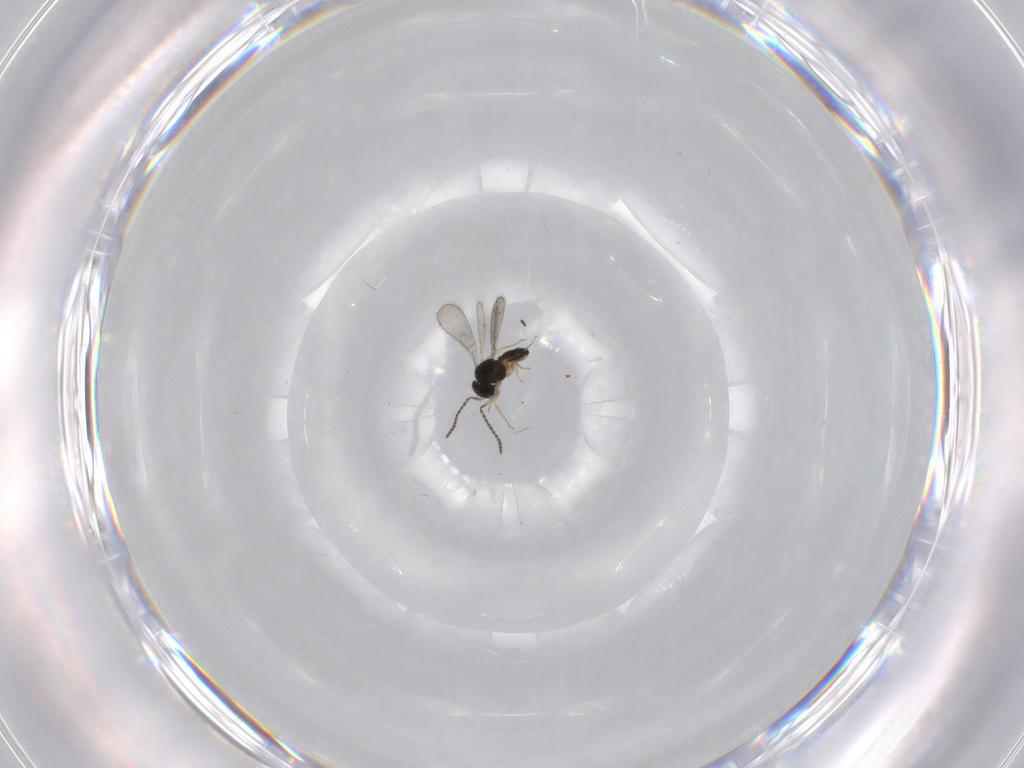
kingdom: Animalia
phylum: Arthropoda
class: Insecta
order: Hymenoptera
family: Scelionidae
